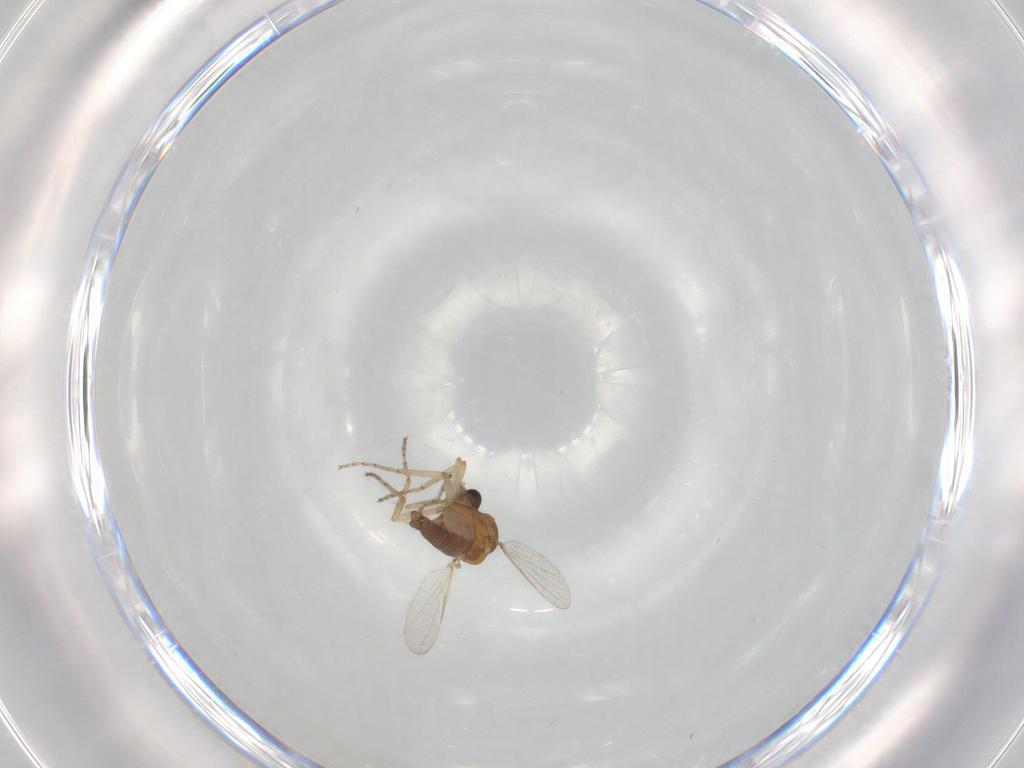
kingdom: Animalia
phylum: Arthropoda
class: Insecta
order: Diptera
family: Ceratopogonidae
